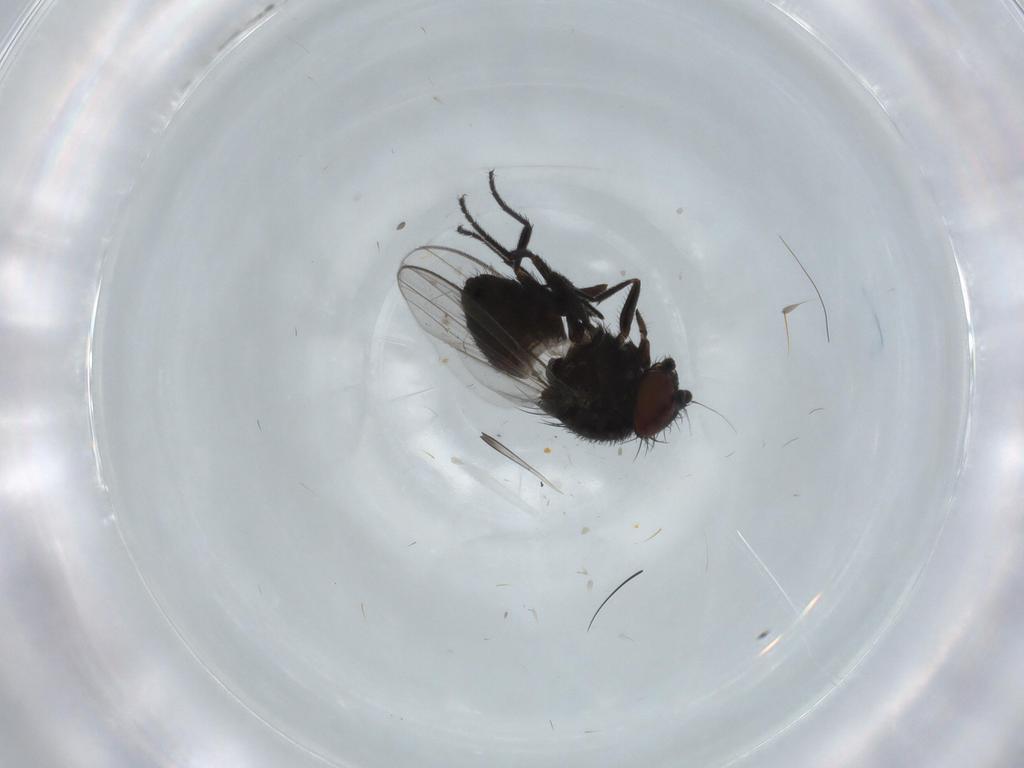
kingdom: Animalia
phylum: Arthropoda
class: Insecta
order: Diptera
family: Milichiidae
